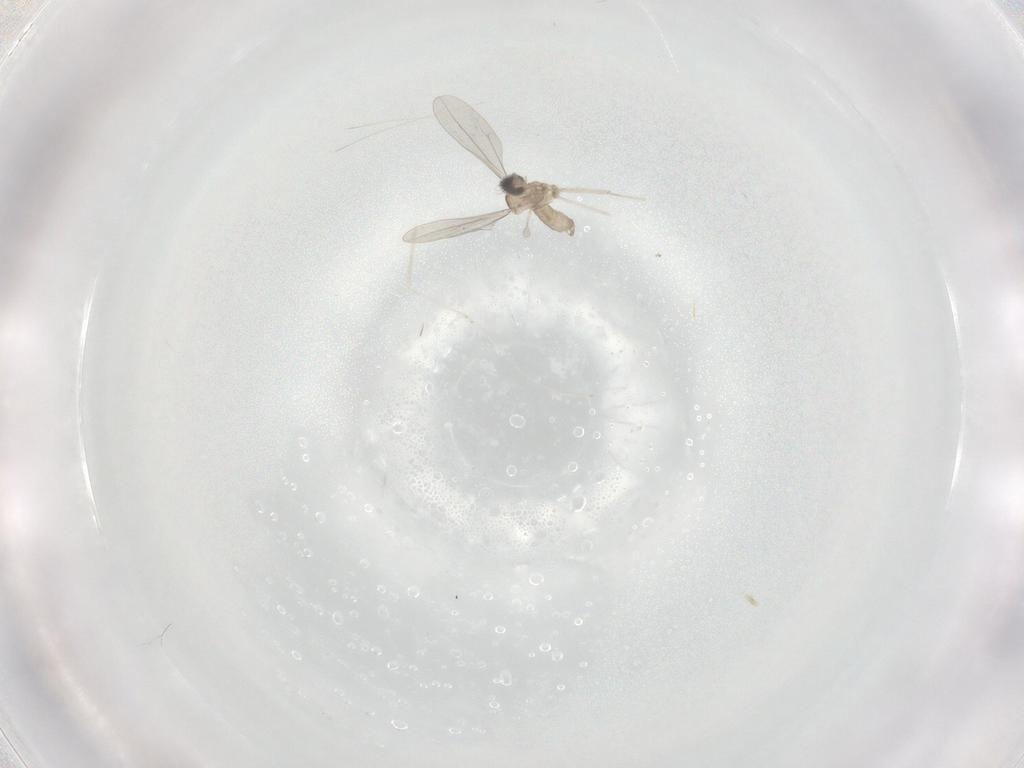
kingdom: Animalia
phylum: Arthropoda
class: Insecta
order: Diptera
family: Cecidomyiidae
